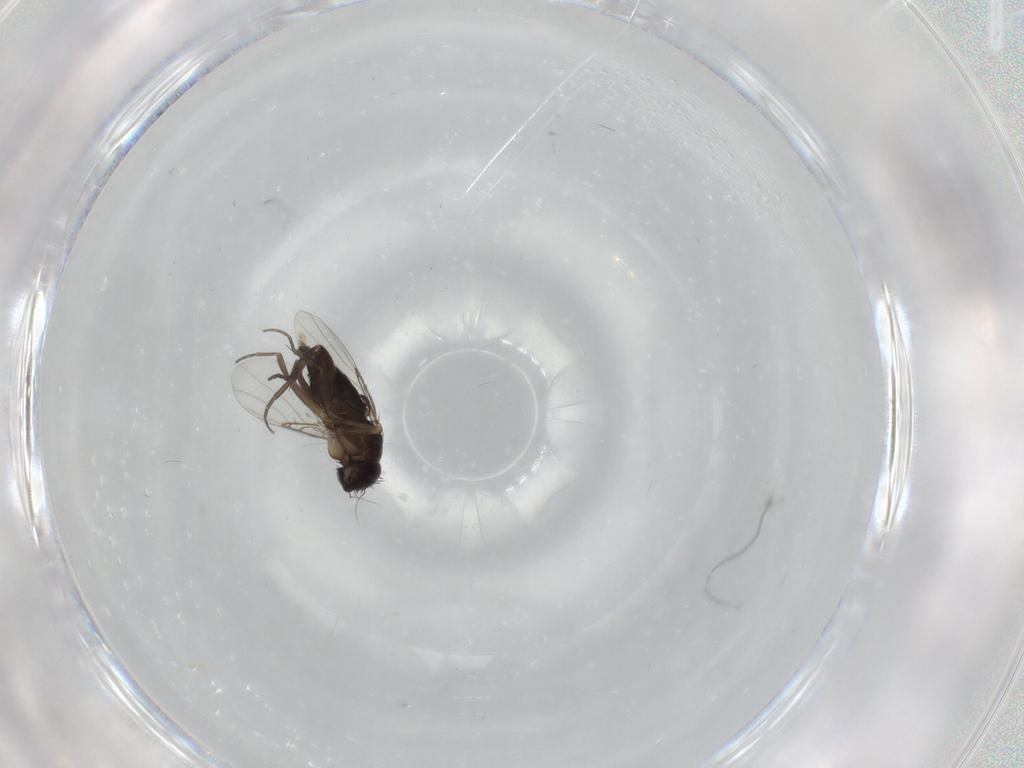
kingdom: Animalia
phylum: Arthropoda
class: Insecta
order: Diptera
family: Phoridae
